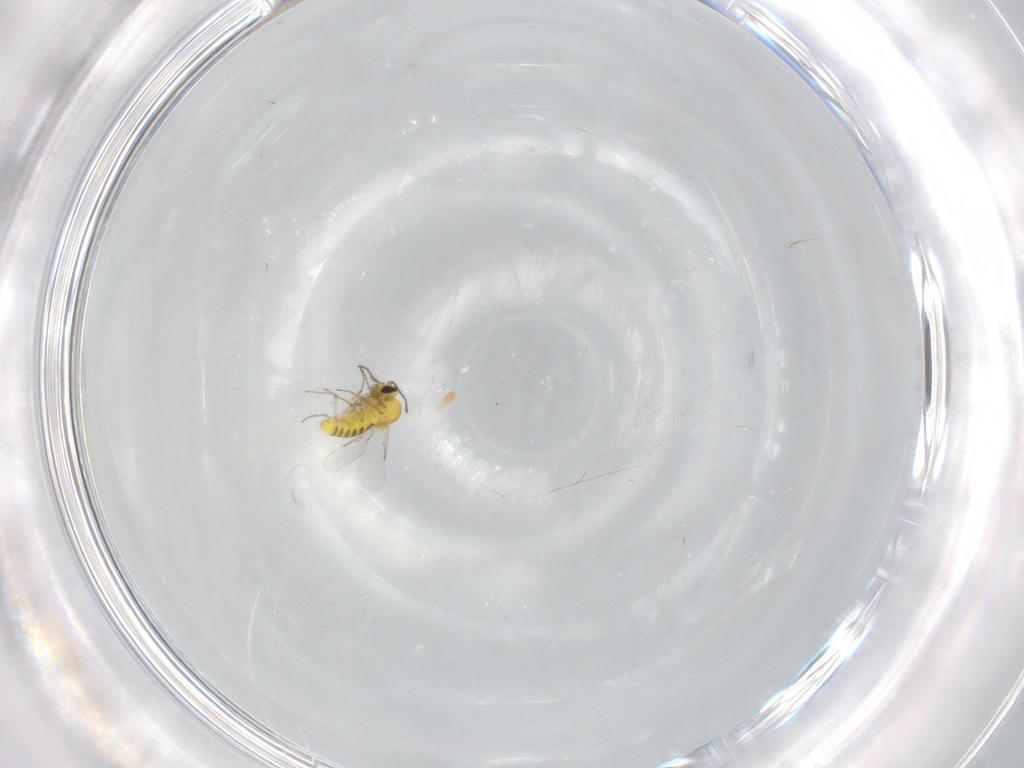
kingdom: Animalia
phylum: Arthropoda
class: Insecta
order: Diptera
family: Ceratopogonidae
